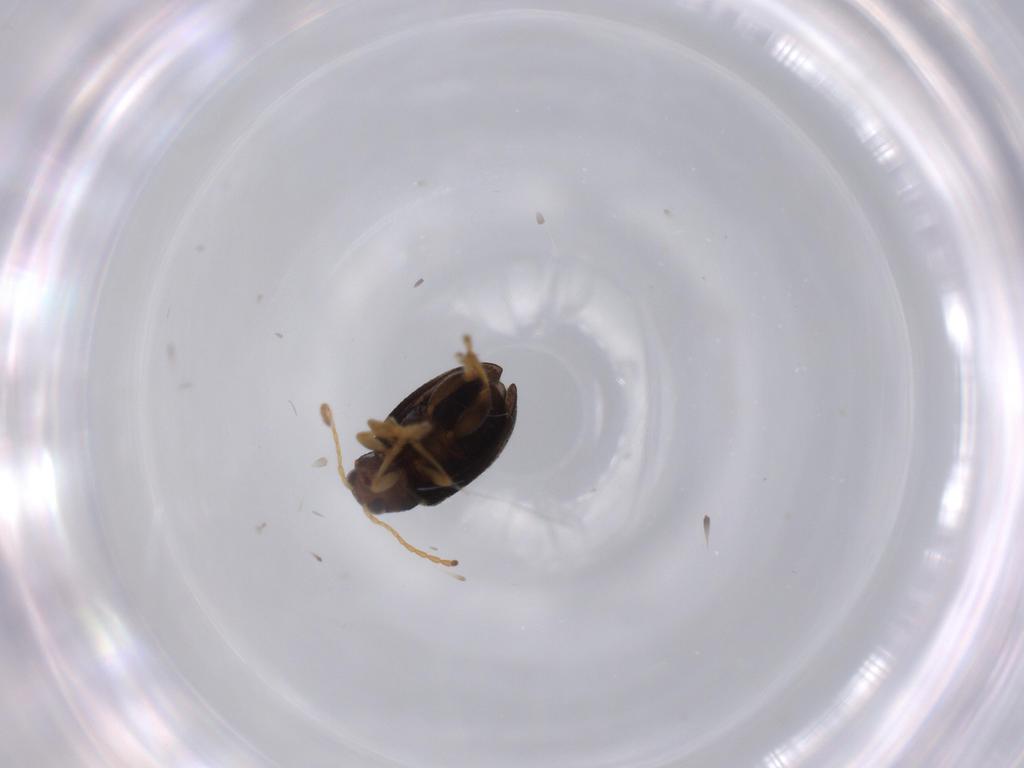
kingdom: Animalia
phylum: Arthropoda
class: Insecta
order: Coleoptera
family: Chrysomelidae
